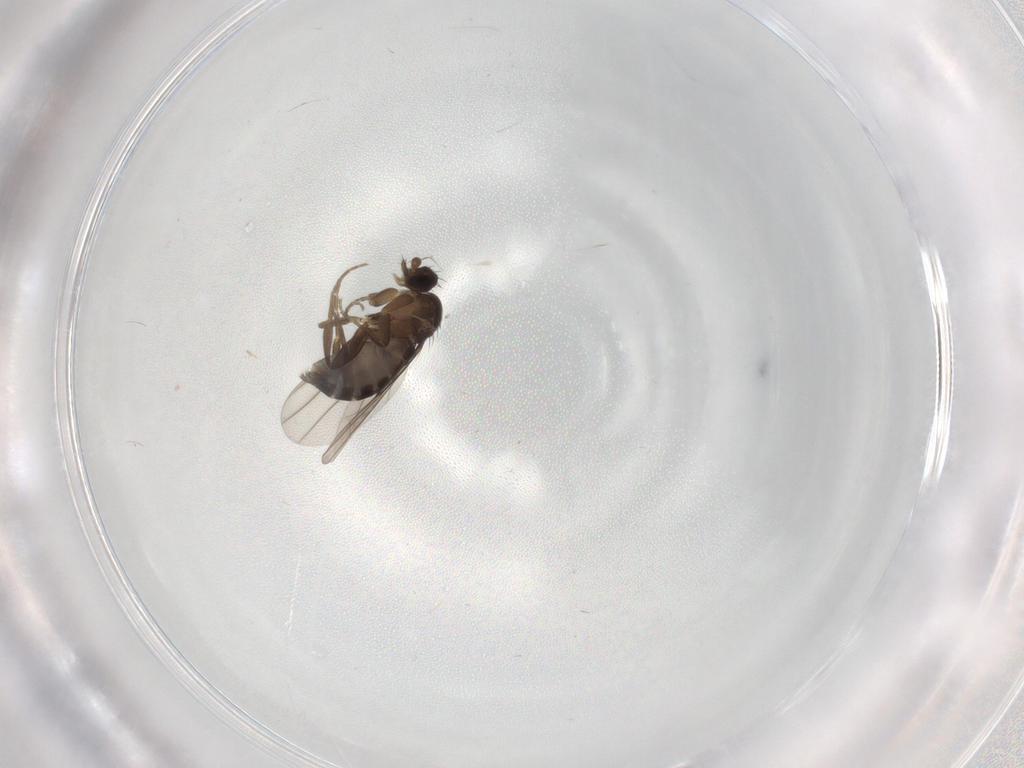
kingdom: Animalia
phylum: Arthropoda
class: Insecta
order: Diptera
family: Phoridae
